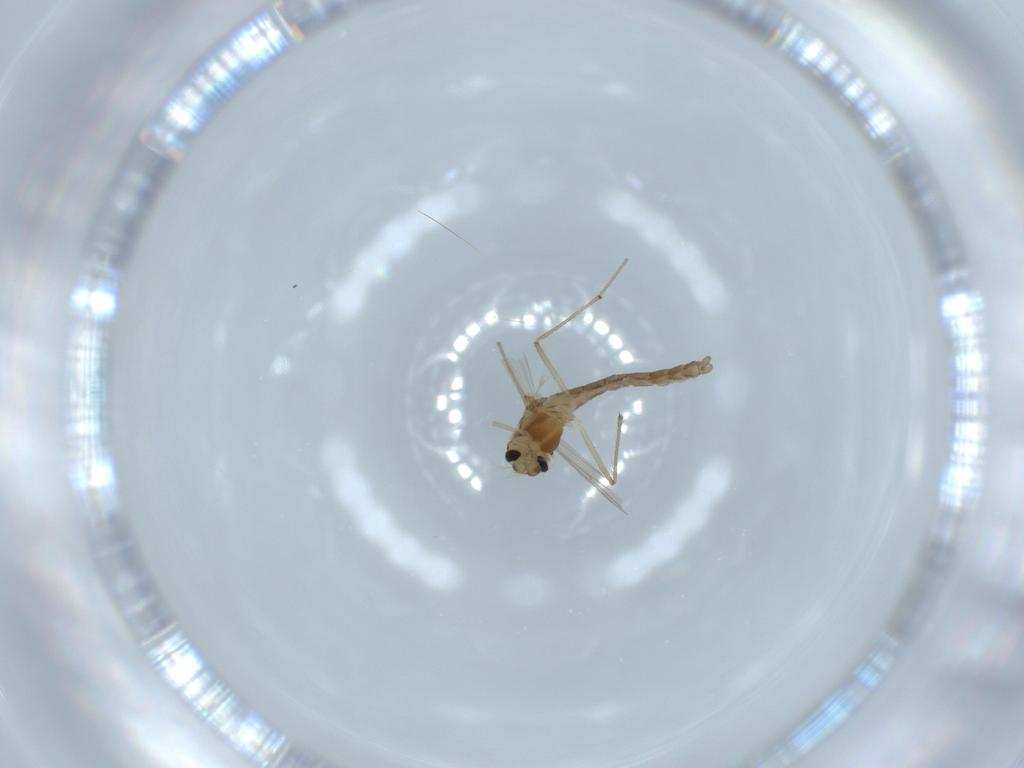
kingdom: Animalia
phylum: Arthropoda
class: Insecta
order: Diptera
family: Chironomidae
